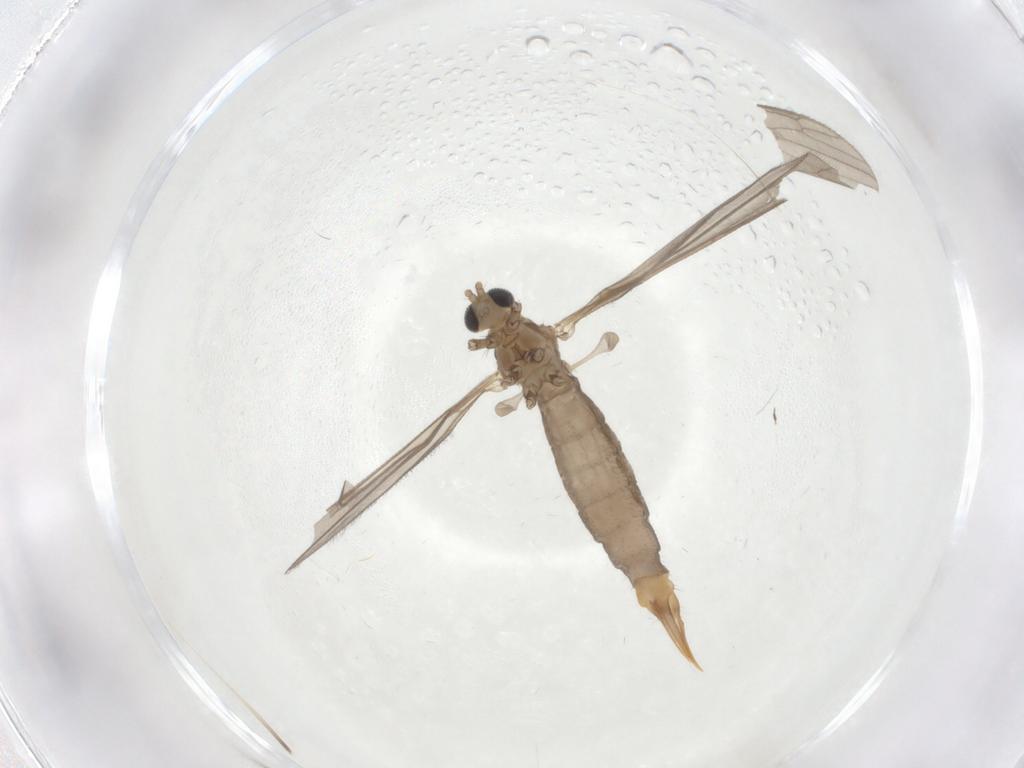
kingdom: Animalia
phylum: Arthropoda
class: Insecta
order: Diptera
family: Limoniidae
